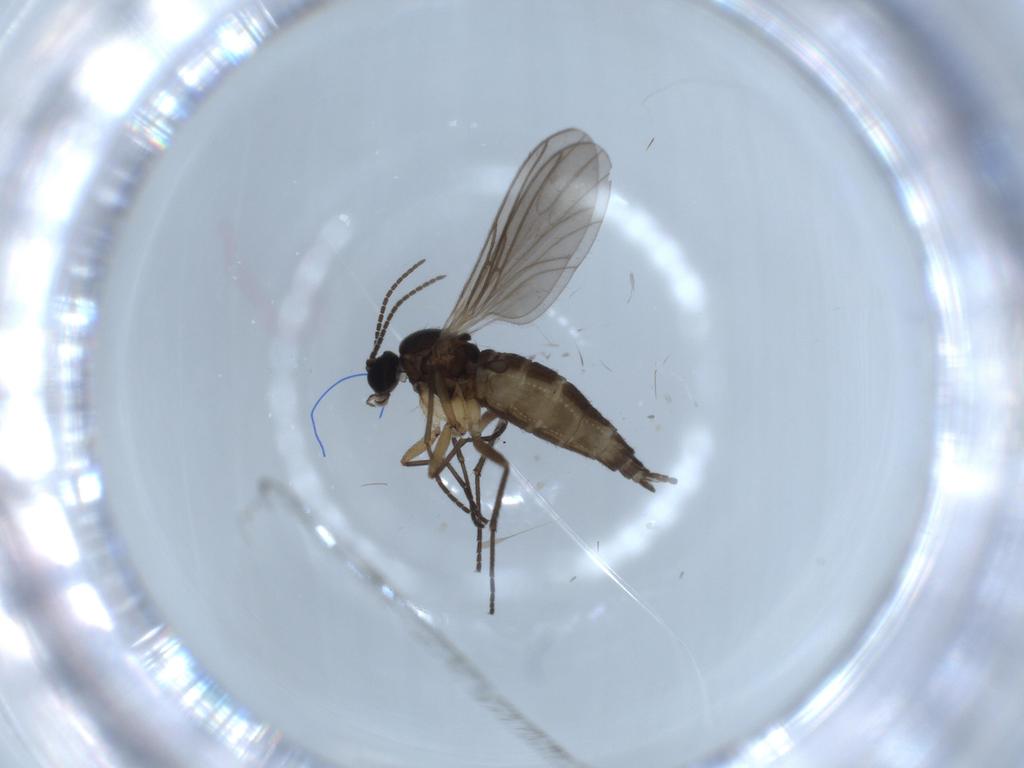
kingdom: Animalia
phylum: Arthropoda
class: Insecta
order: Diptera
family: Sciaridae
